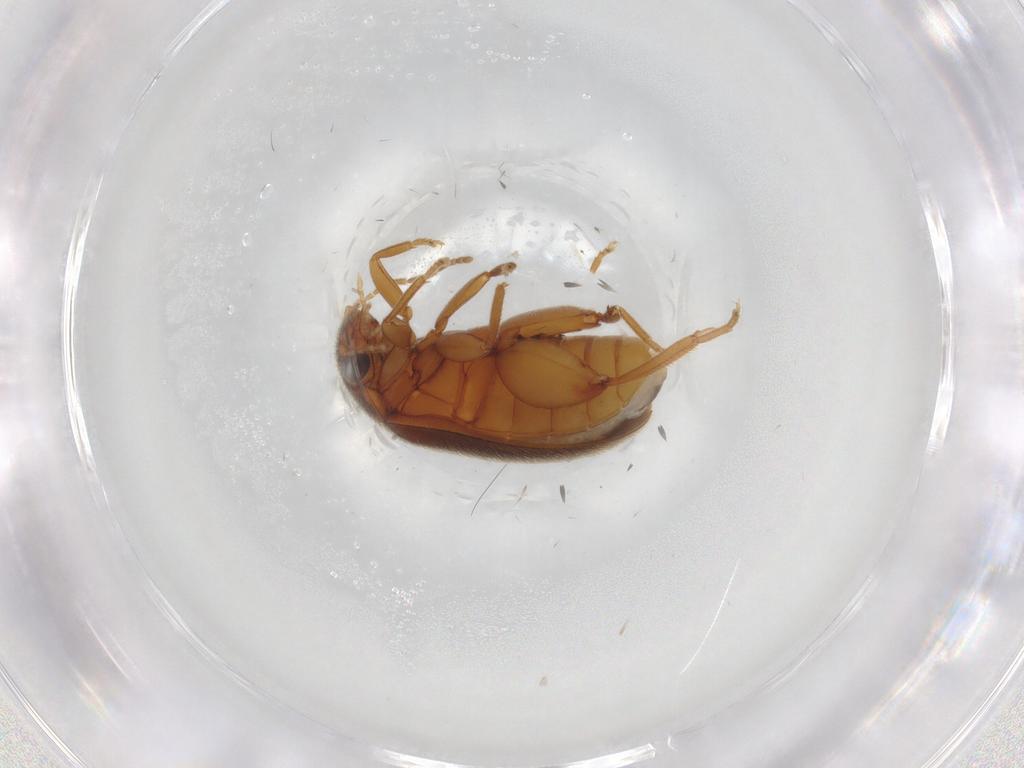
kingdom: Animalia
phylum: Arthropoda
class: Insecta
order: Coleoptera
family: Scirtidae
